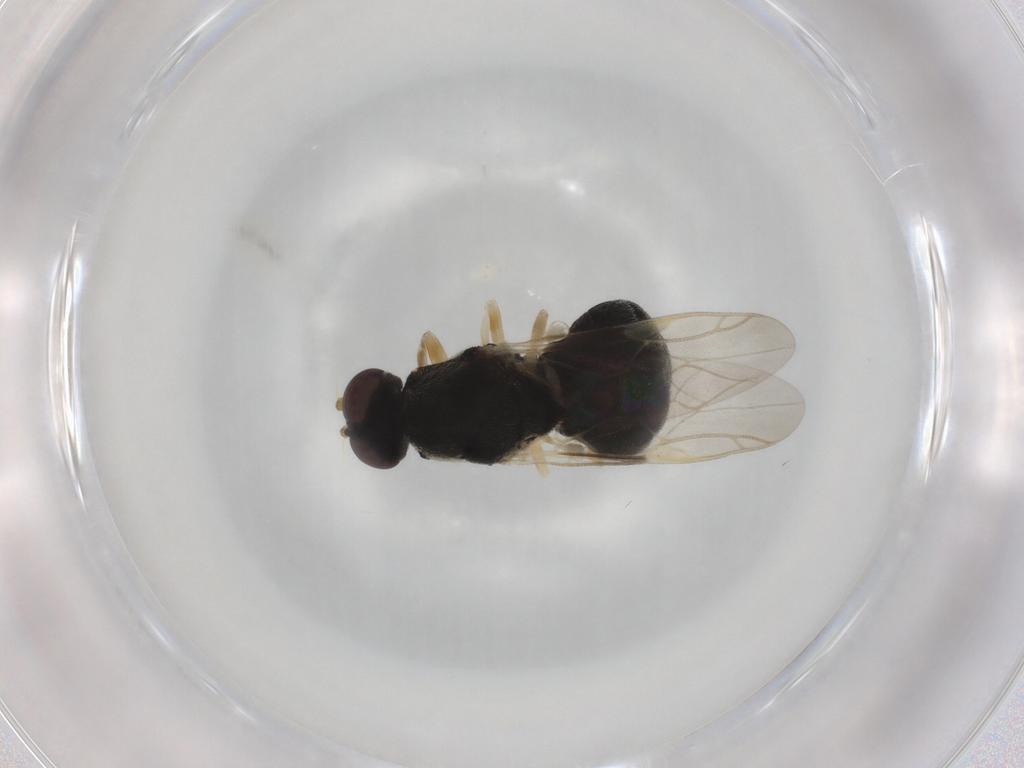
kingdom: Animalia
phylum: Arthropoda
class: Insecta
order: Diptera
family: Stratiomyidae
